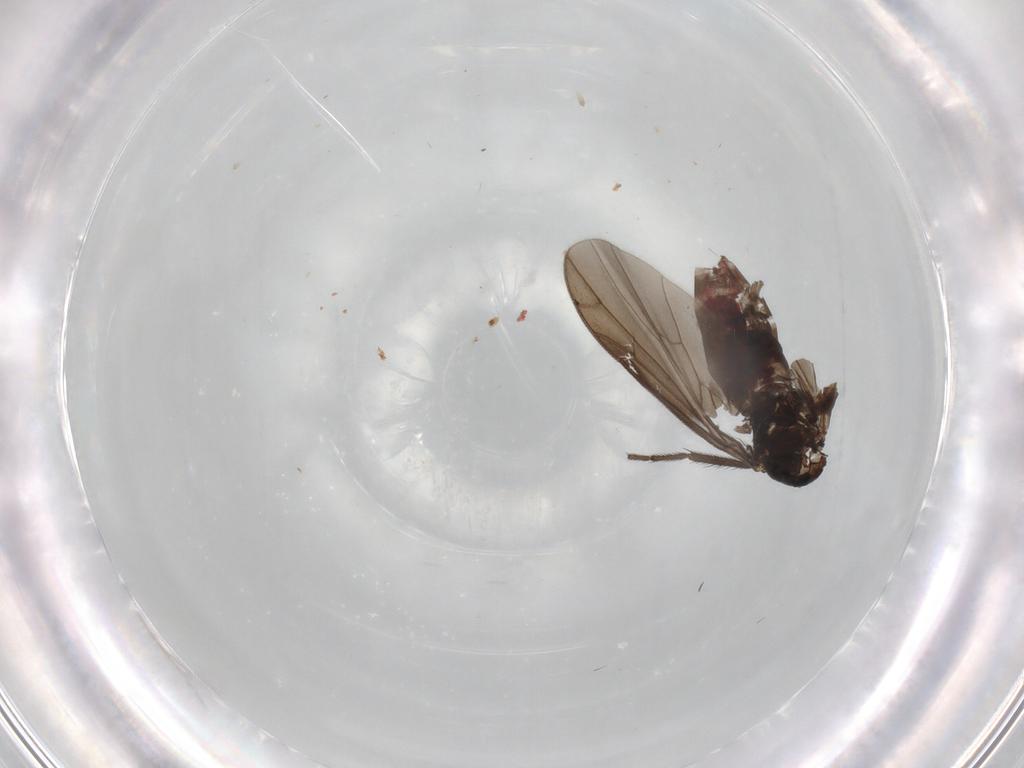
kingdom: Animalia
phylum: Arthropoda
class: Insecta
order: Diptera
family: Empididae
